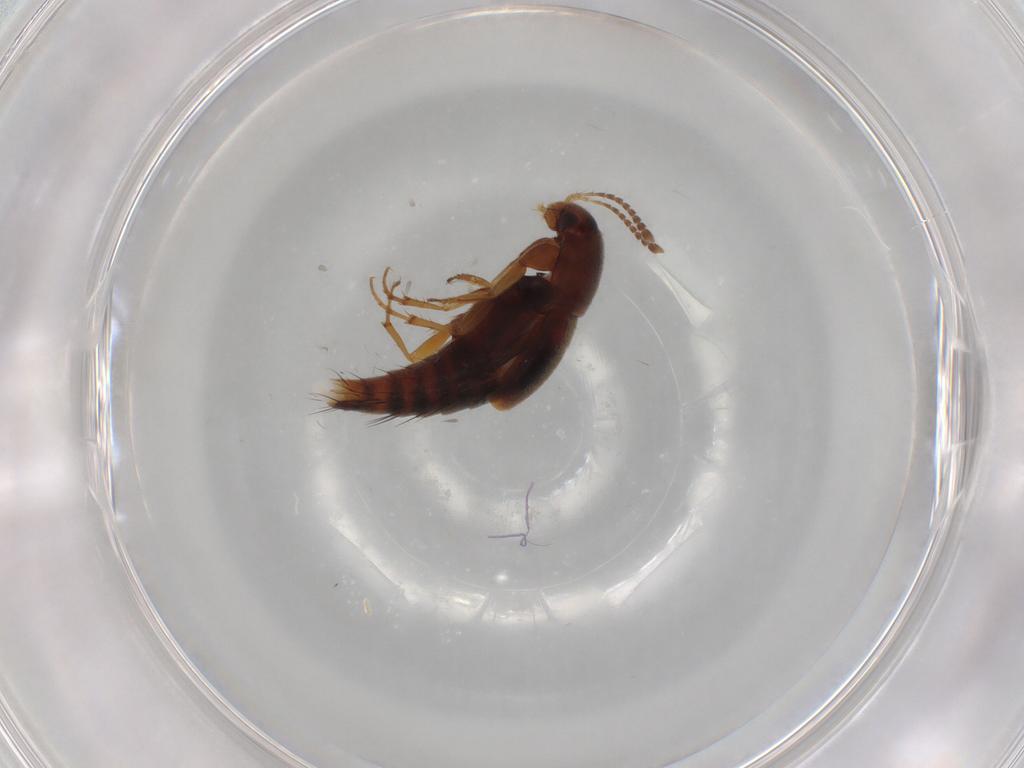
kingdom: Animalia
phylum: Arthropoda
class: Insecta
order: Coleoptera
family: Staphylinidae
